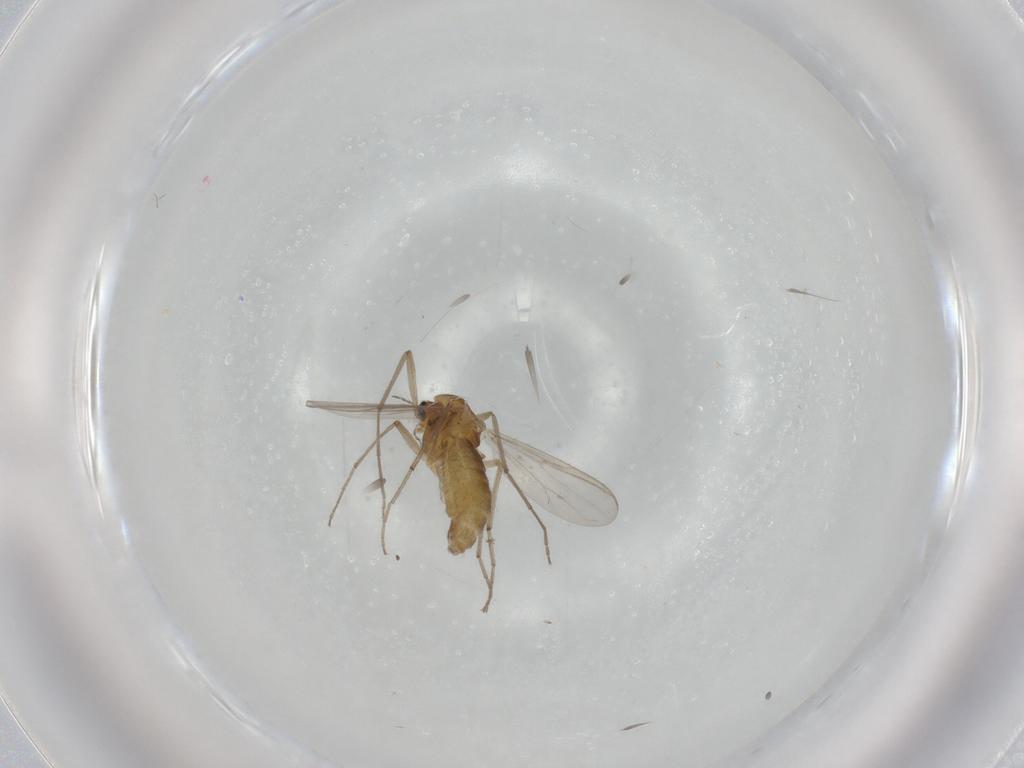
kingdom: Animalia
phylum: Arthropoda
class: Insecta
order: Diptera
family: Chironomidae
